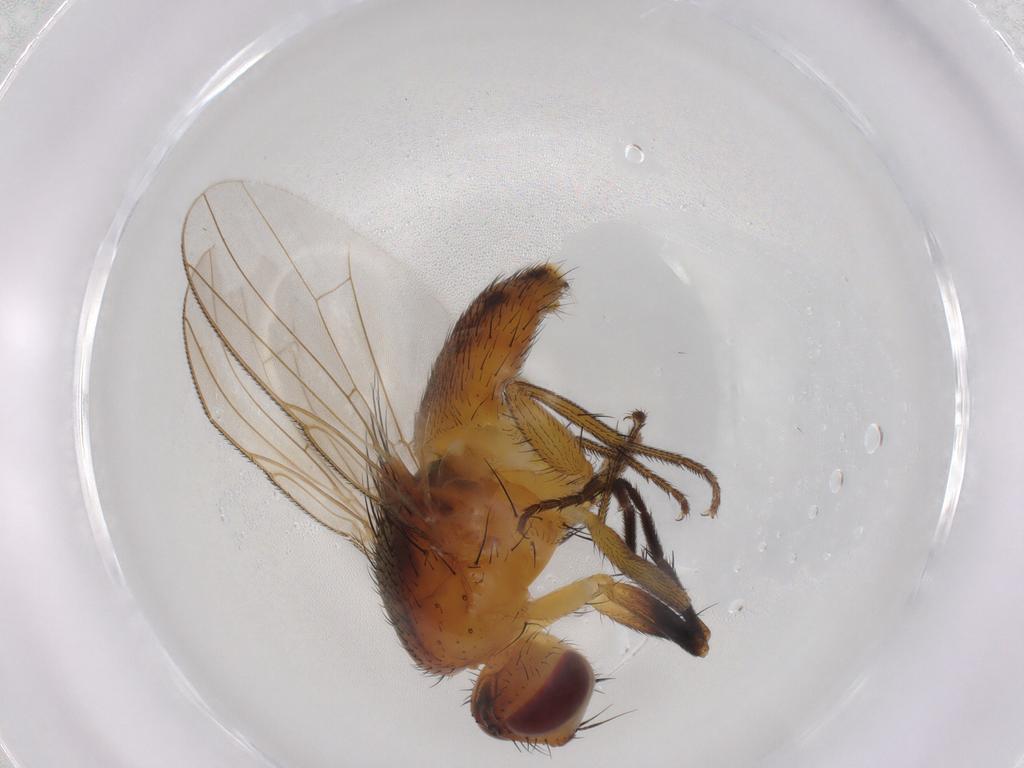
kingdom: Animalia
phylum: Arthropoda
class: Insecta
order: Diptera
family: Muscidae
